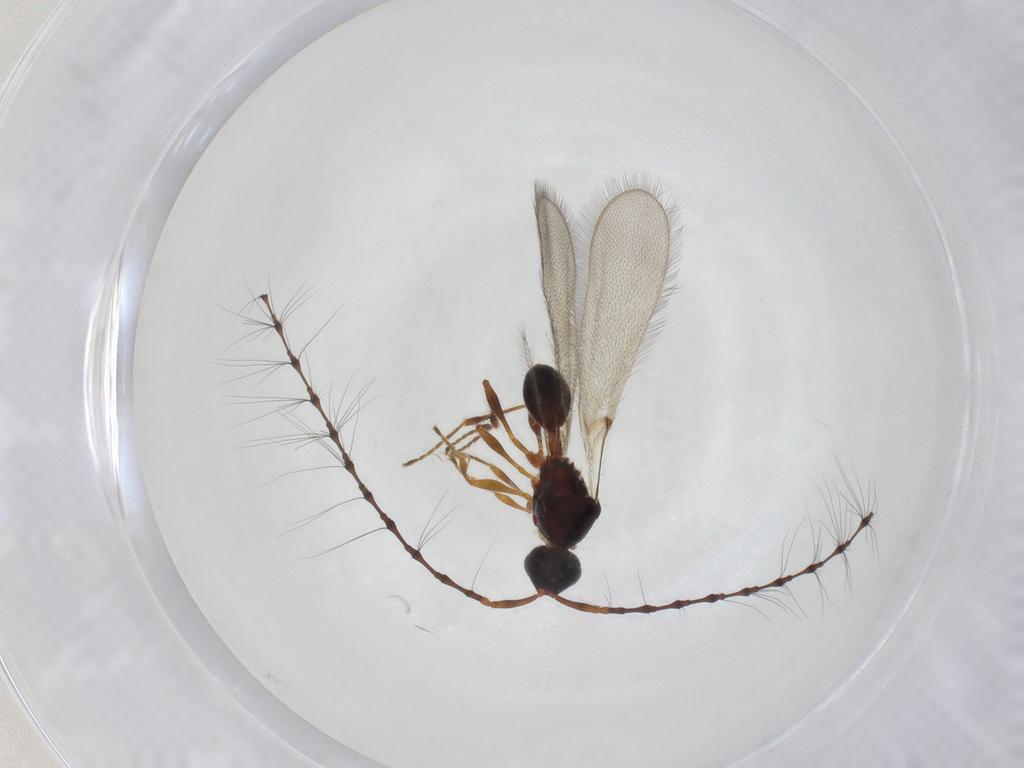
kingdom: Animalia
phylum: Arthropoda
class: Insecta
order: Hymenoptera
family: Diapriidae
